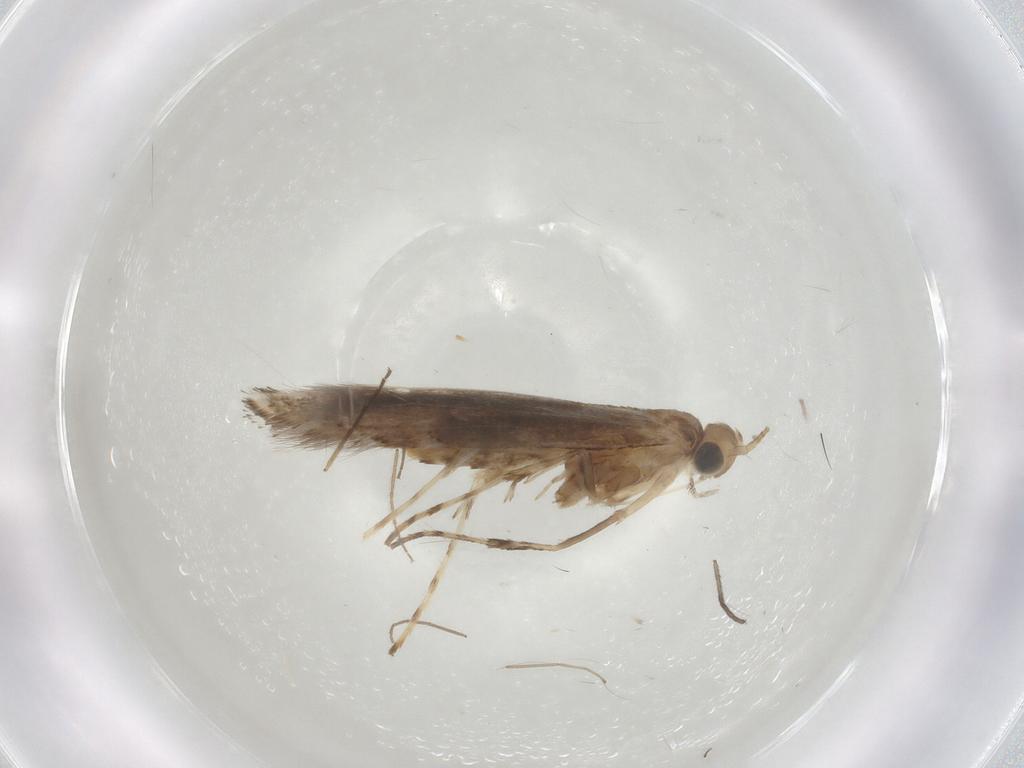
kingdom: Animalia
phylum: Arthropoda
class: Insecta
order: Lepidoptera
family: Gracillariidae
